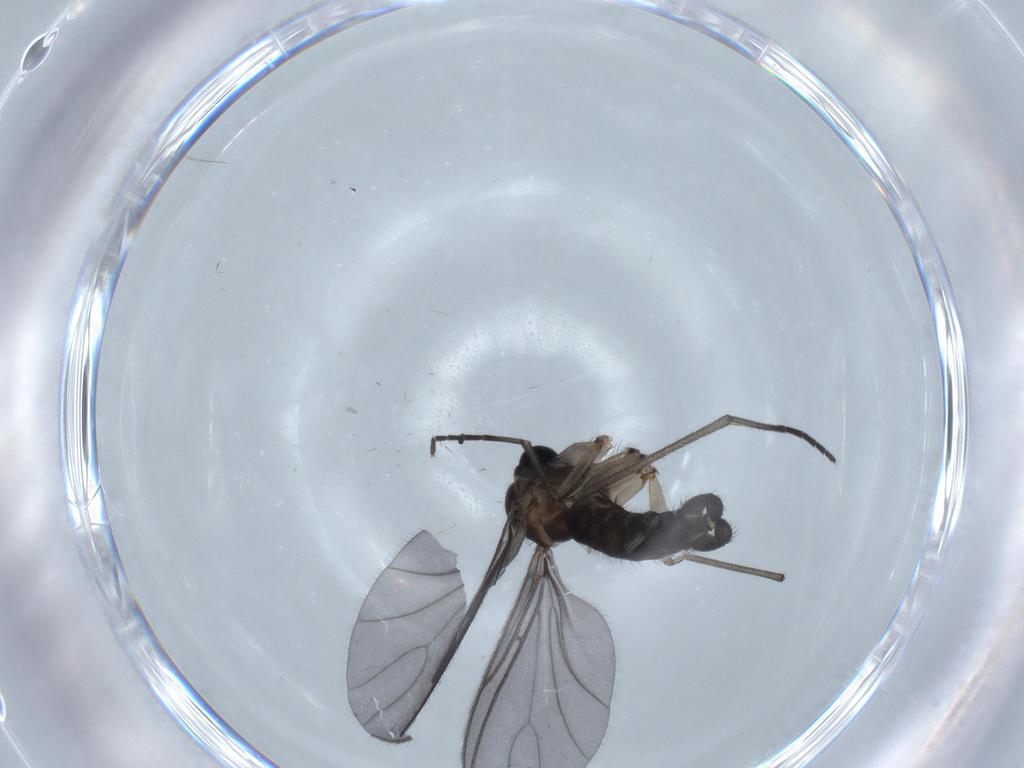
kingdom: Animalia
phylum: Arthropoda
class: Insecta
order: Diptera
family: Sciaridae
